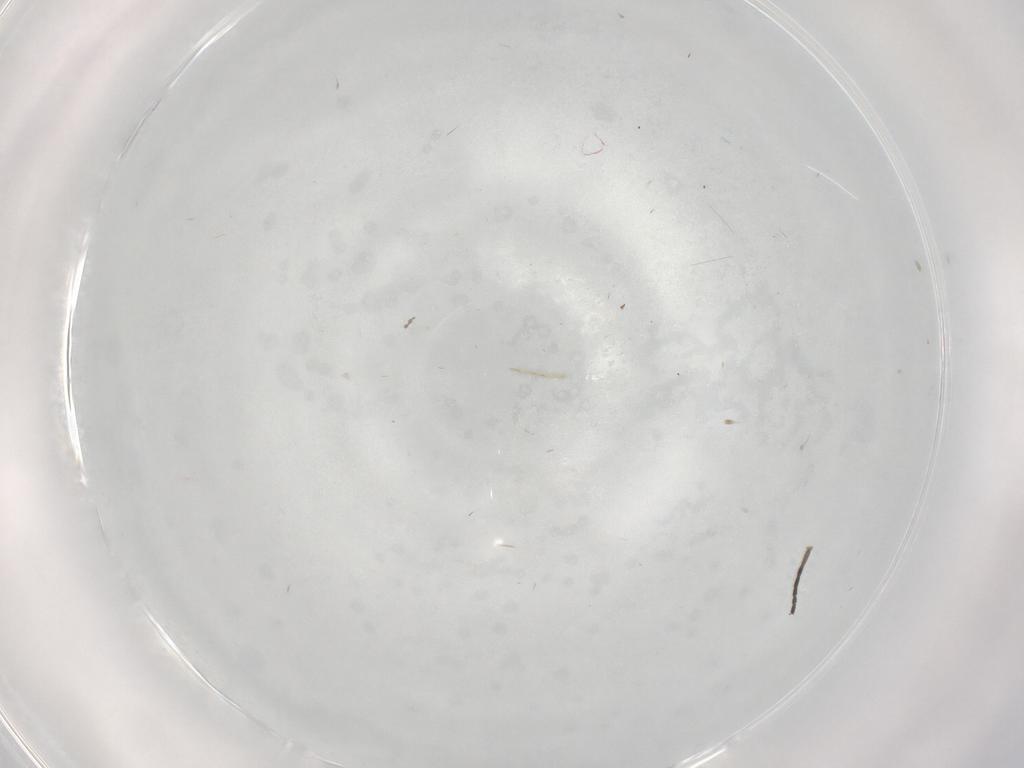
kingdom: Animalia
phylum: Arthropoda
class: Insecta
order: Diptera
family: Phoridae
